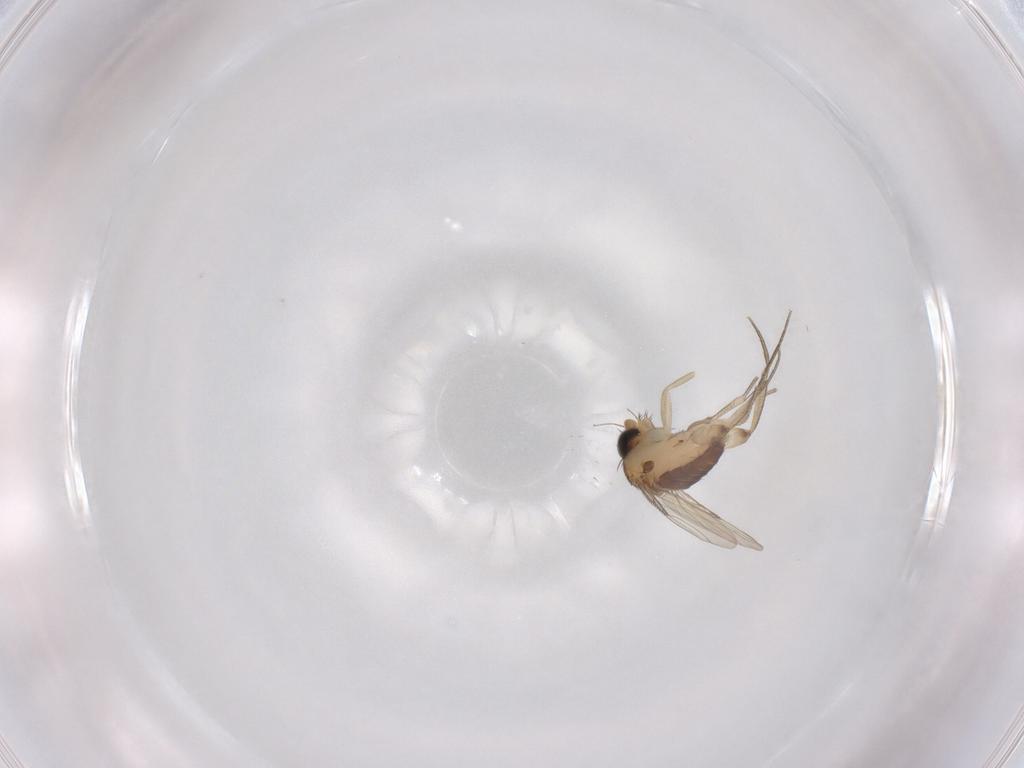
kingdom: Animalia
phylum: Arthropoda
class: Insecta
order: Diptera
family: Phoridae
